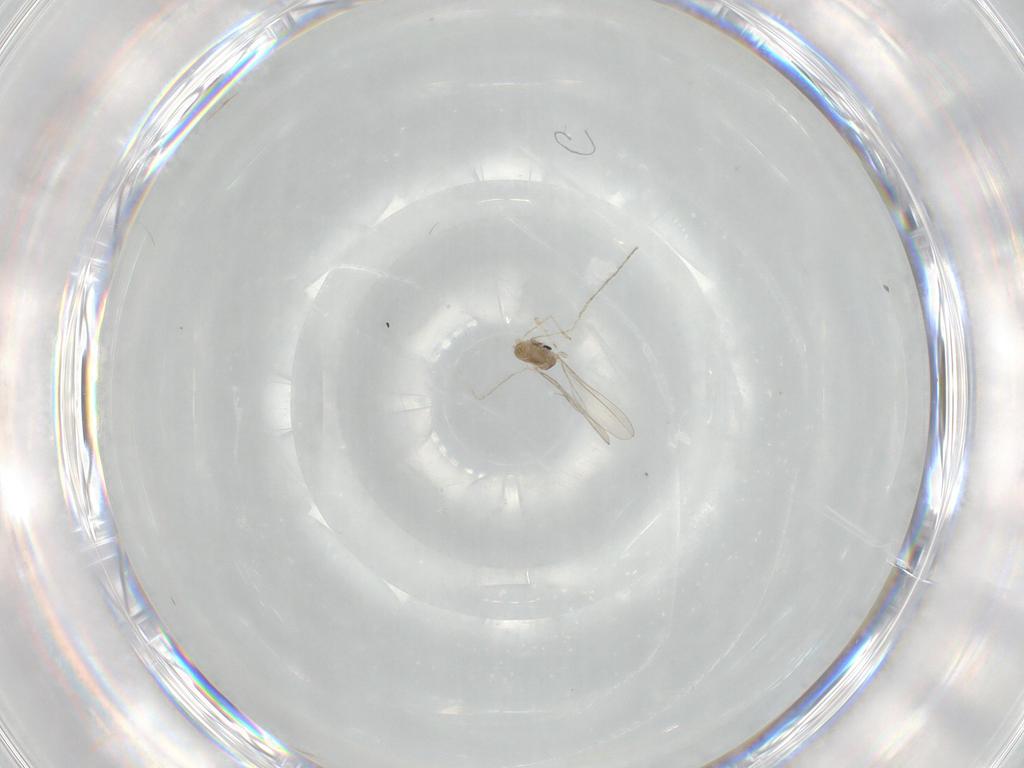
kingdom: Animalia
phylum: Arthropoda
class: Insecta
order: Diptera
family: Cecidomyiidae
